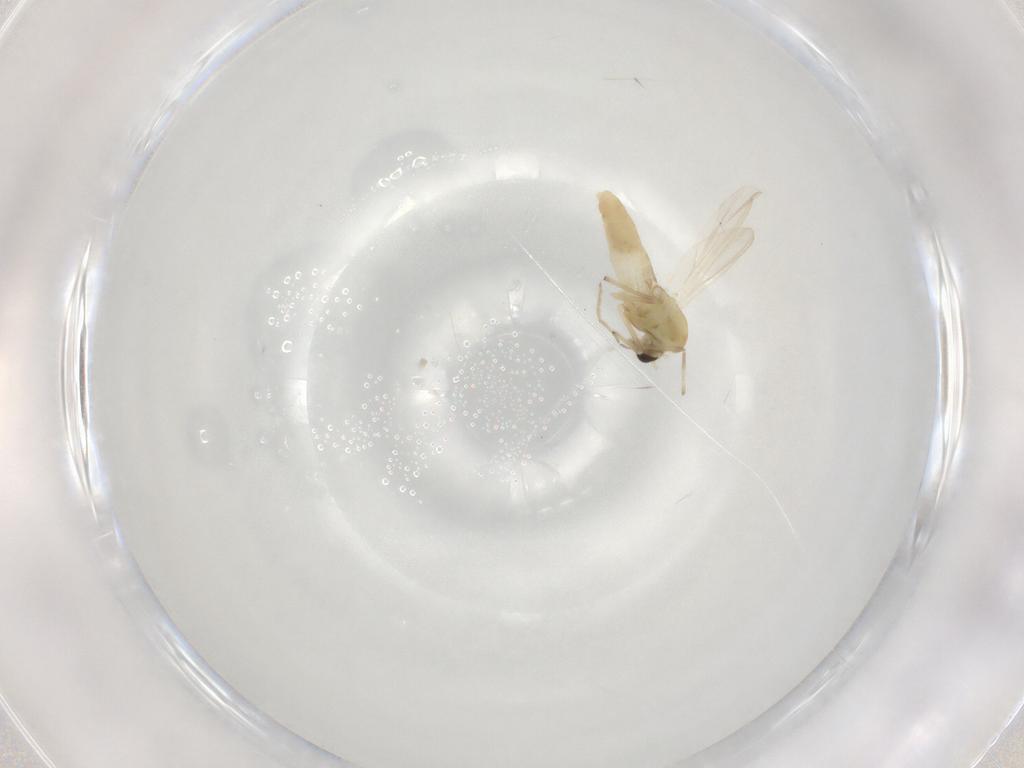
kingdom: Animalia
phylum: Arthropoda
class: Insecta
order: Diptera
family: Chironomidae
